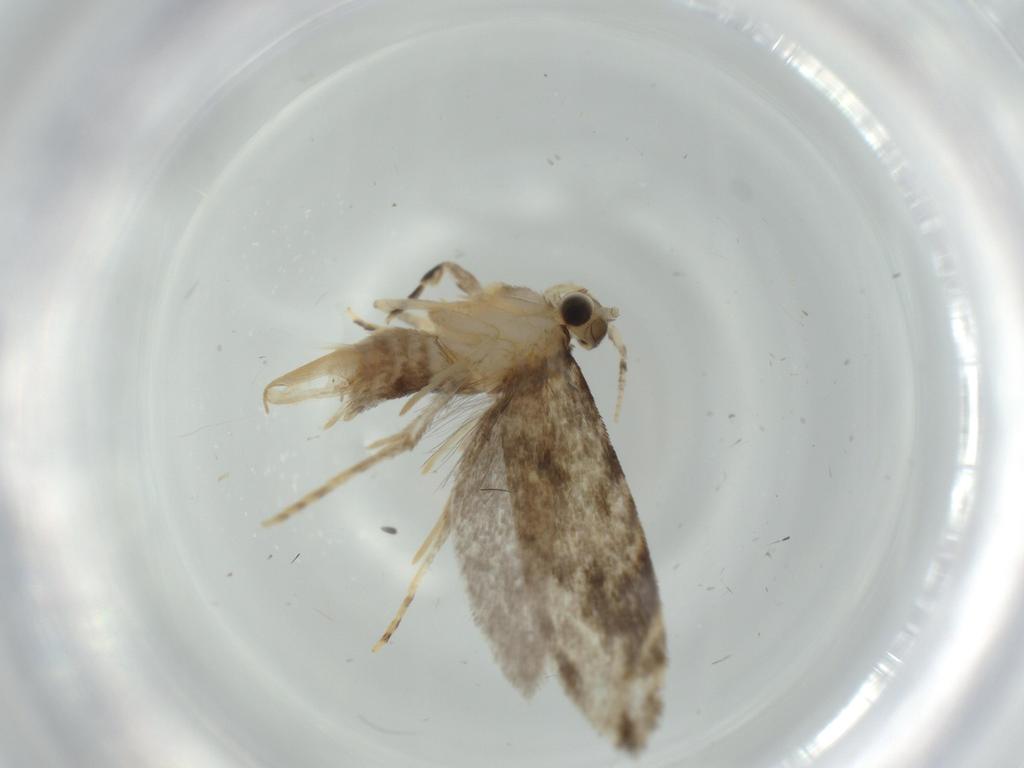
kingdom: Animalia
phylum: Arthropoda
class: Insecta
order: Lepidoptera
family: Tineidae
